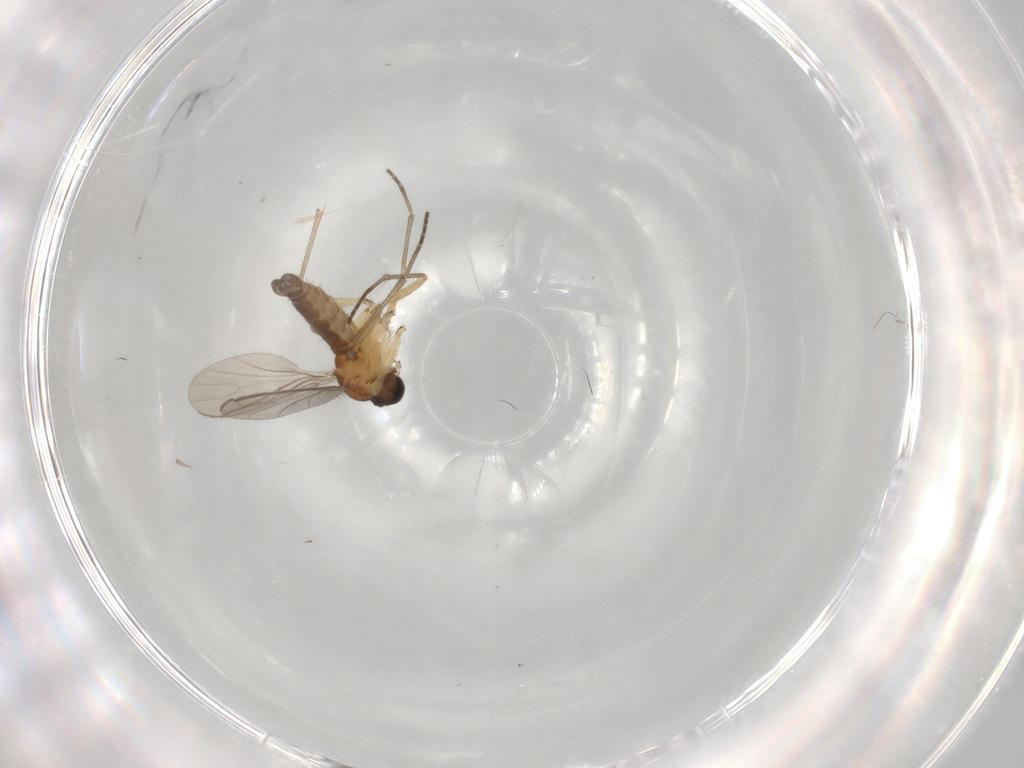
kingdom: Animalia
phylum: Arthropoda
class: Insecta
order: Diptera
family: Sciaridae
